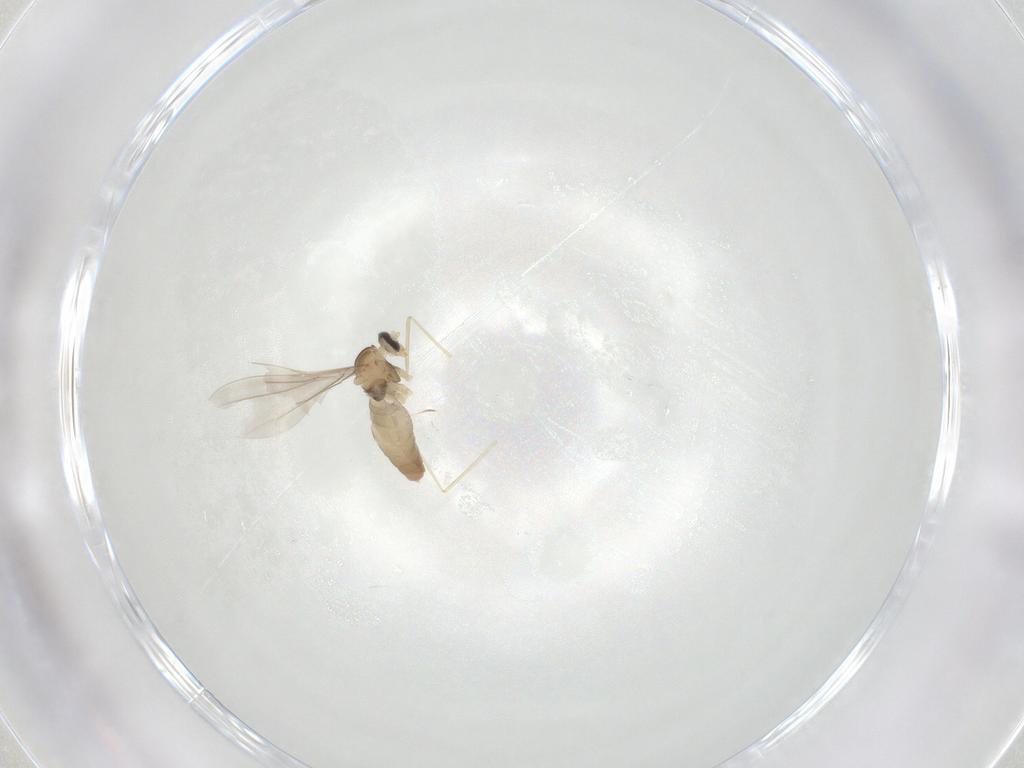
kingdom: Animalia
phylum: Arthropoda
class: Insecta
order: Diptera
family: Cecidomyiidae
